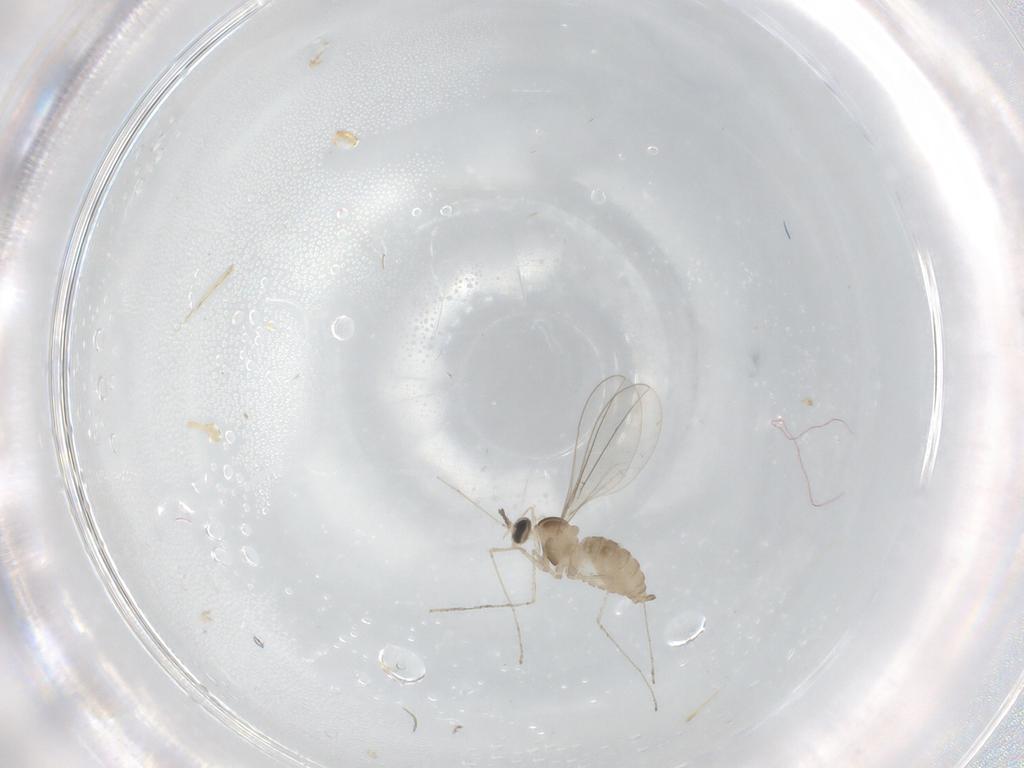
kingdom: Animalia
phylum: Arthropoda
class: Insecta
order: Diptera
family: Cecidomyiidae
